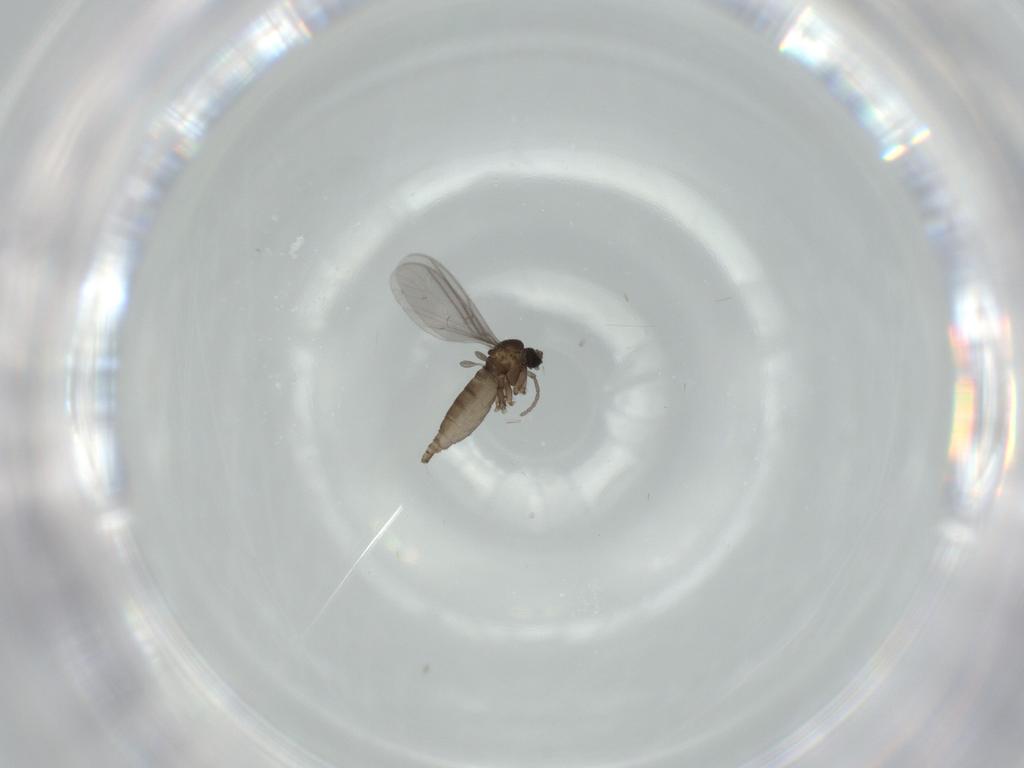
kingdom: Animalia
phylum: Arthropoda
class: Insecta
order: Diptera
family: Sciaridae
